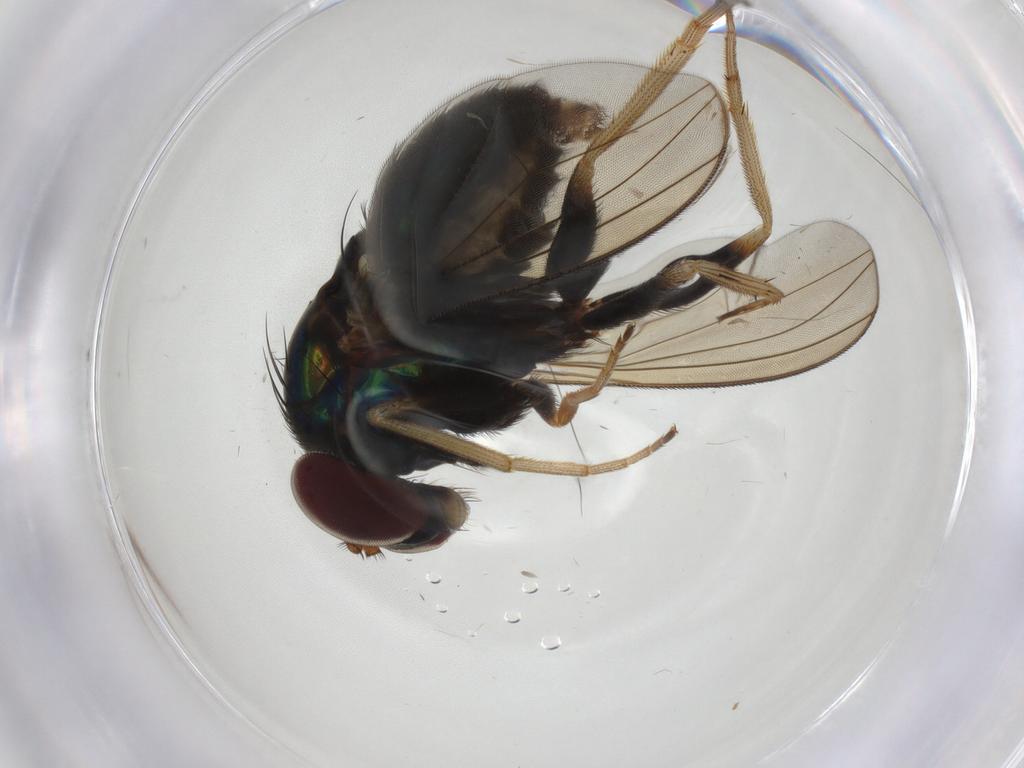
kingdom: Animalia
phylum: Arthropoda
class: Insecta
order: Diptera
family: Dolichopodidae
